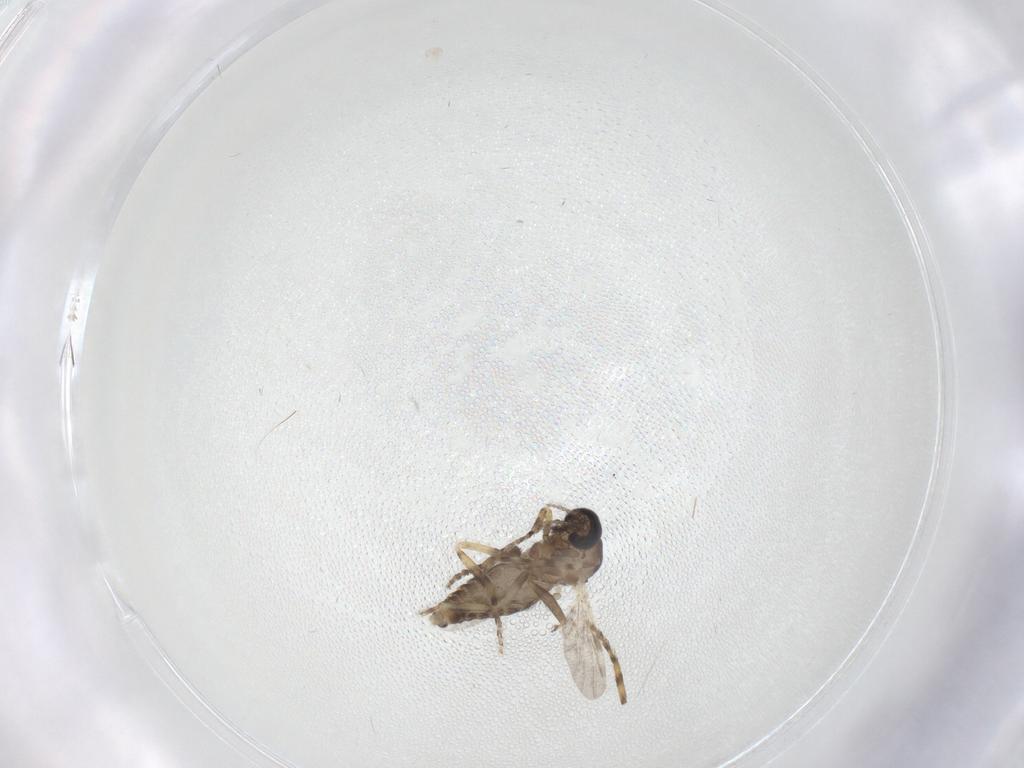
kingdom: Animalia
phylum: Arthropoda
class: Insecta
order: Diptera
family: Ceratopogonidae
